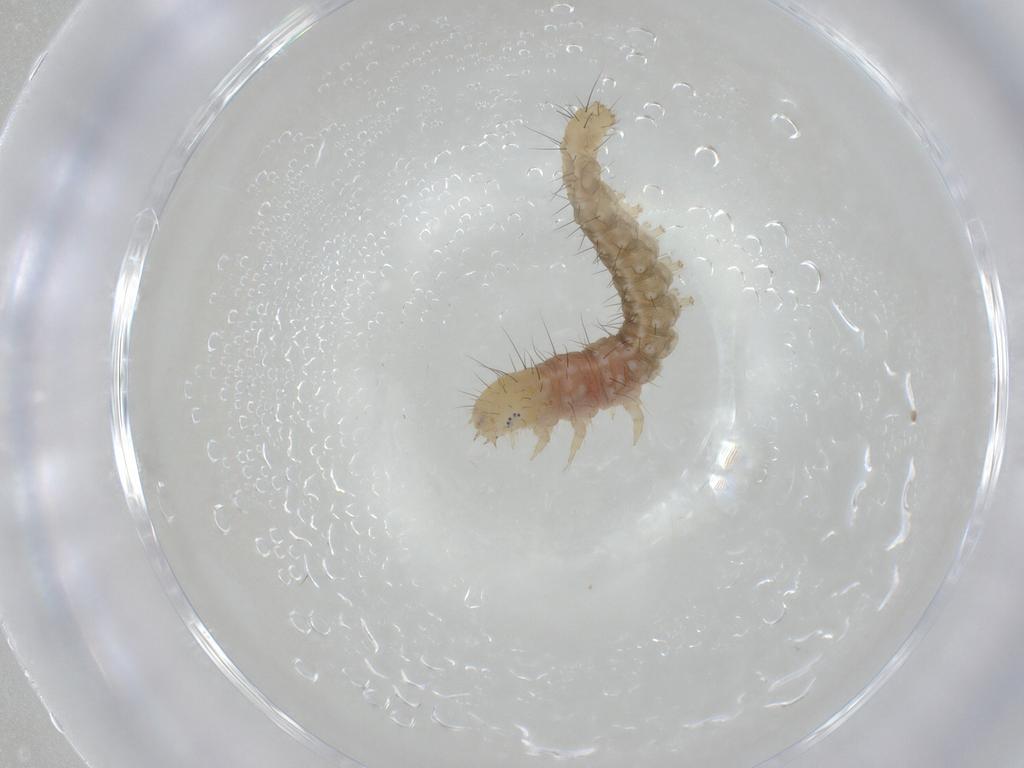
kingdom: Animalia
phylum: Arthropoda
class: Insecta
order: Lepidoptera
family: Gelechiidae
